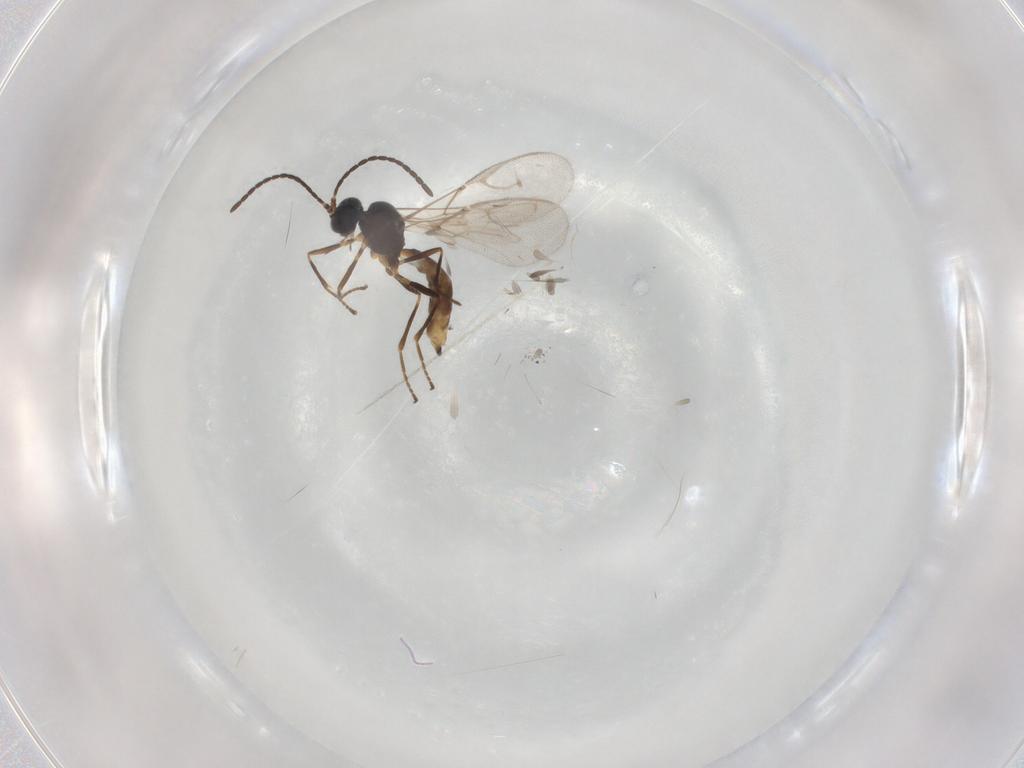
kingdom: Animalia
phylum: Arthropoda
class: Insecta
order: Hymenoptera
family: Braconidae
